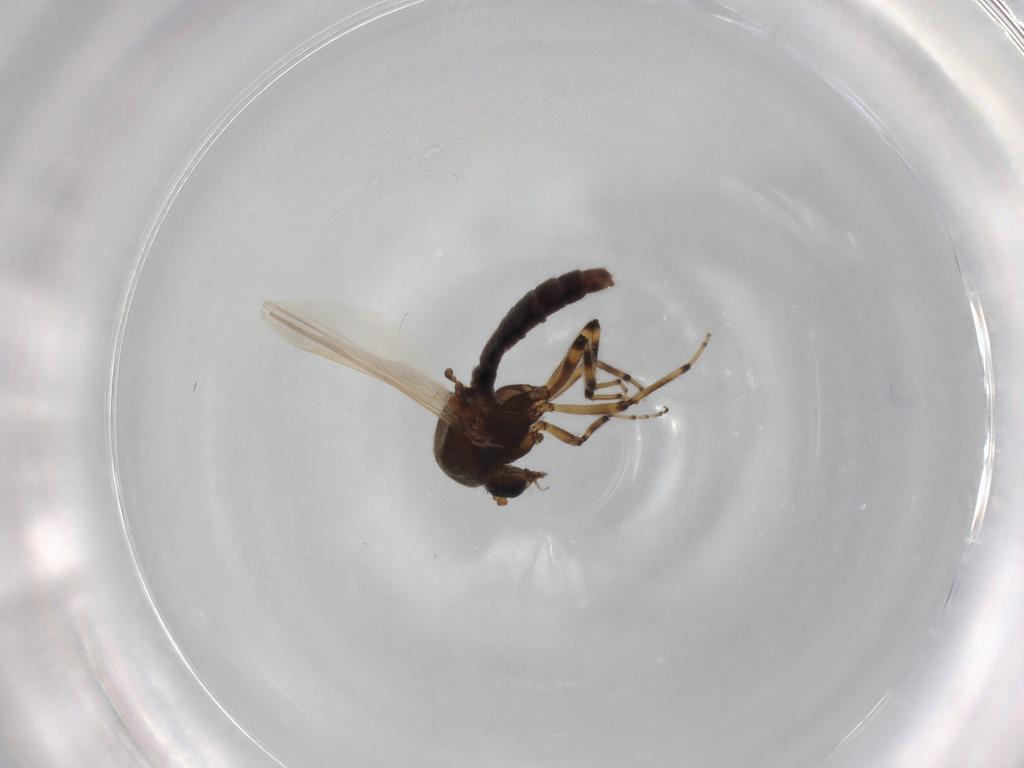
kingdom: Animalia
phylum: Arthropoda
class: Insecta
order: Diptera
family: Ceratopogonidae
